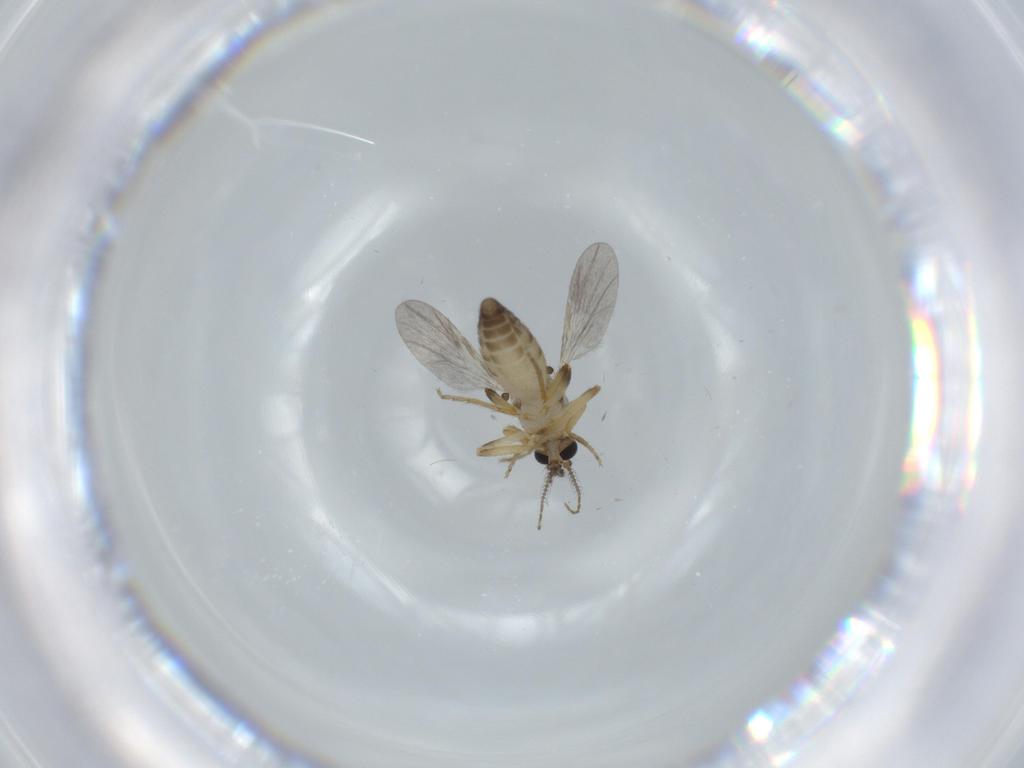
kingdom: Animalia
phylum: Arthropoda
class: Insecta
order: Diptera
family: Ceratopogonidae
